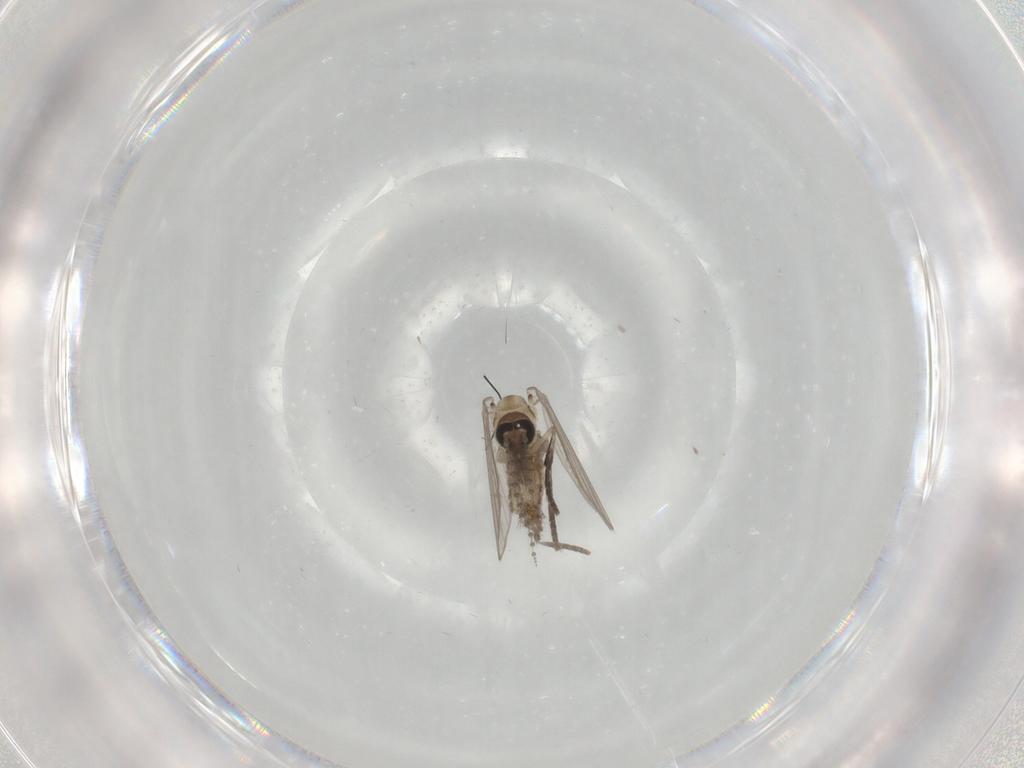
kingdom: Animalia
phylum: Arthropoda
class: Insecta
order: Diptera
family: Psychodidae
